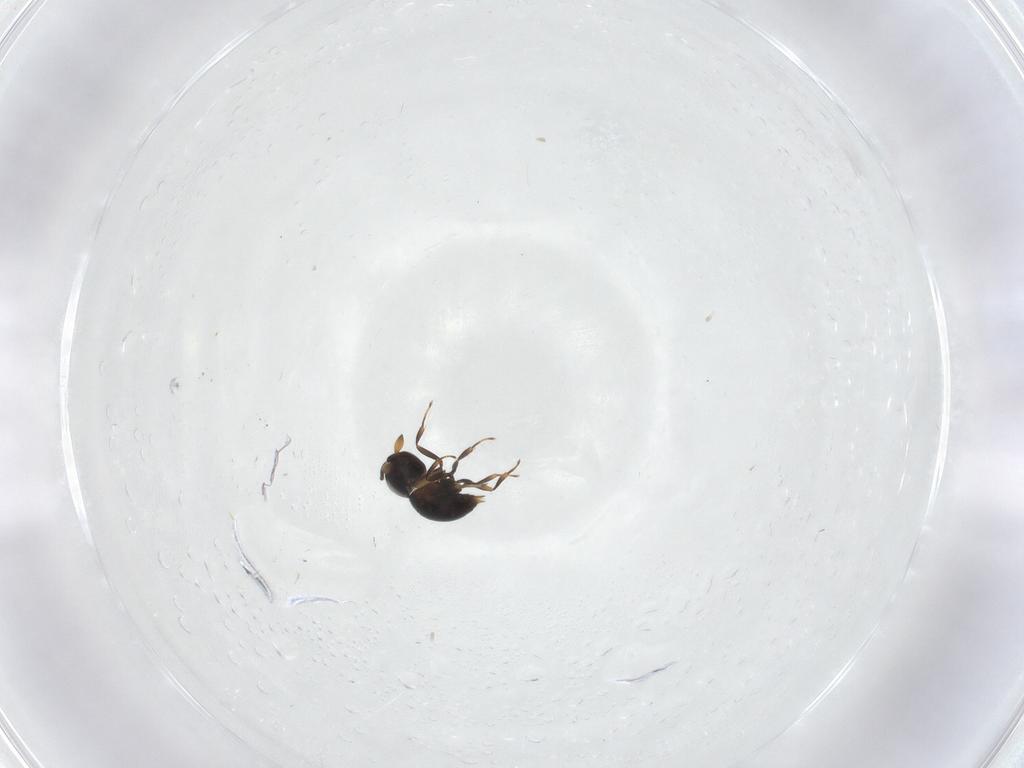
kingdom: Animalia
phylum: Arthropoda
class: Insecta
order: Hymenoptera
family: Scelionidae
